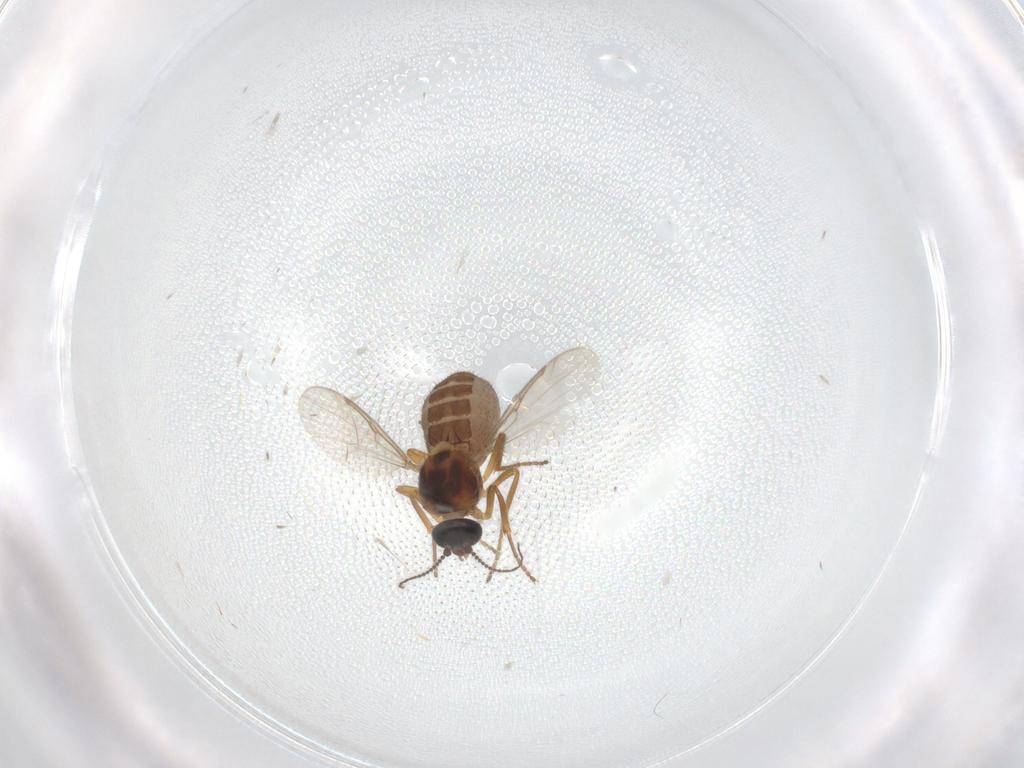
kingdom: Animalia
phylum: Arthropoda
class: Insecta
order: Diptera
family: Ceratopogonidae
